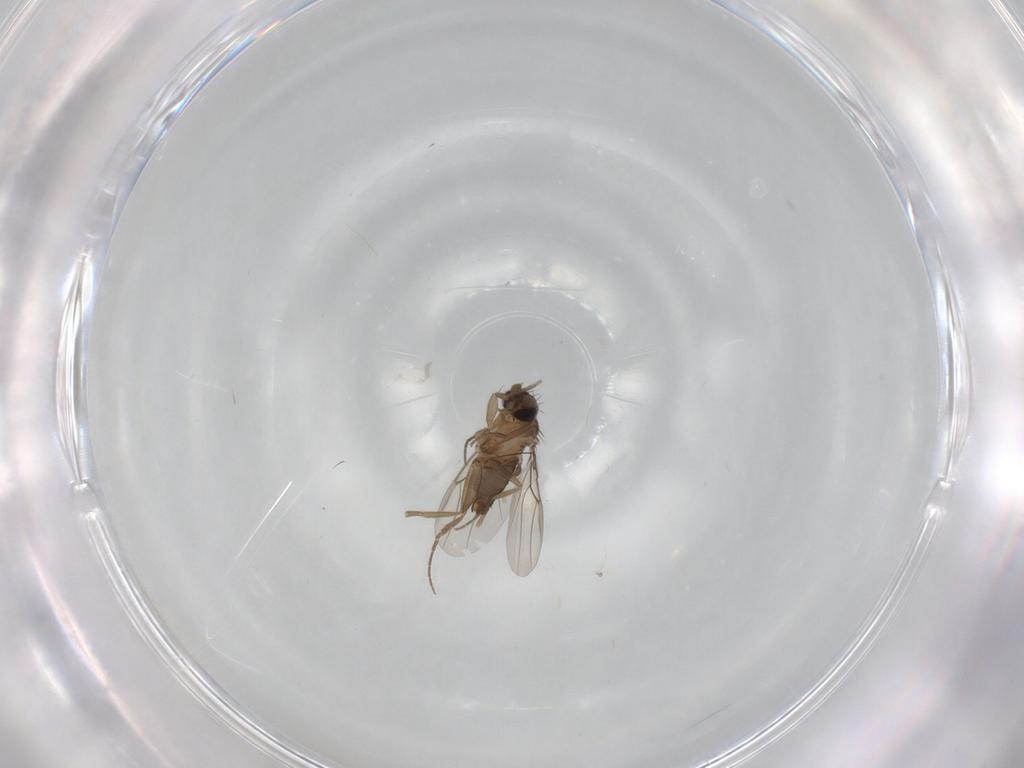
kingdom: Animalia
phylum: Arthropoda
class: Insecta
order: Diptera
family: Phoridae
